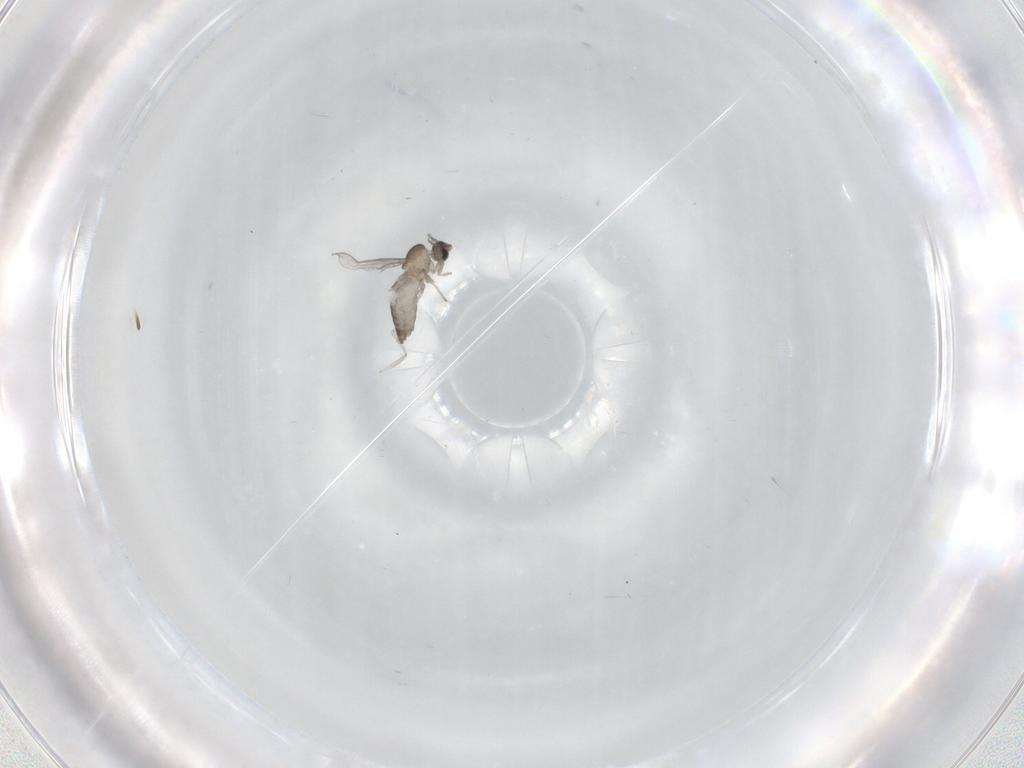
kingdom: Animalia
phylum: Arthropoda
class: Insecta
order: Diptera
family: Cecidomyiidae
